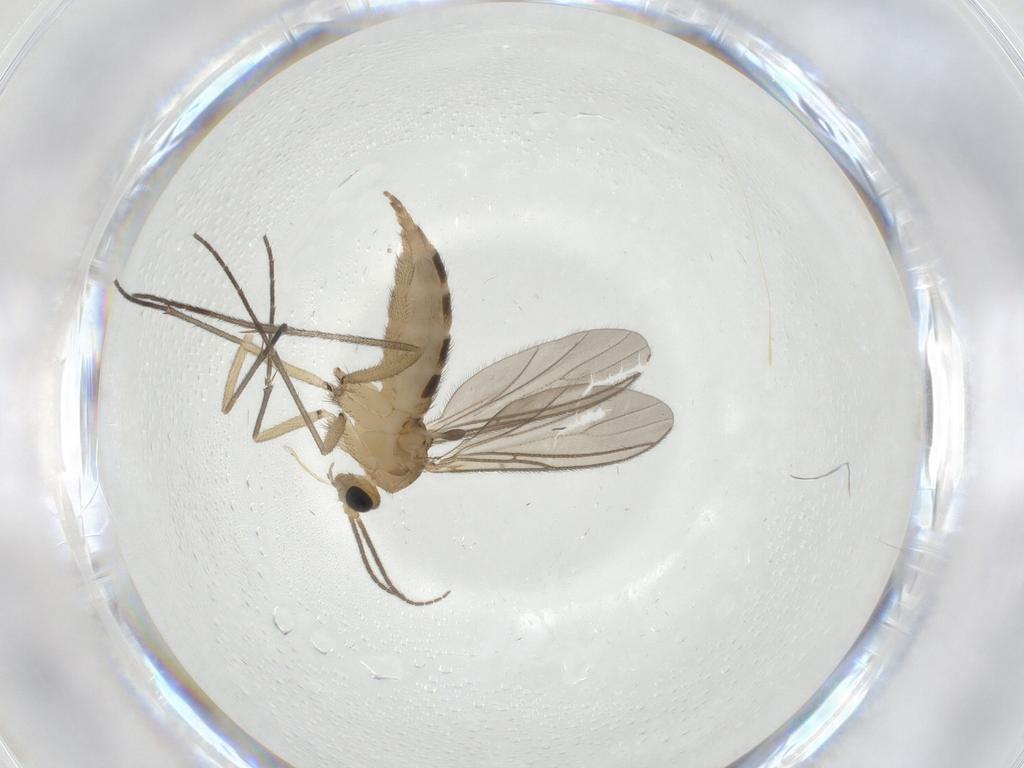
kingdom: Animalia
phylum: Arthropoda
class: Insecta
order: Diptera
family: Sciaridae
